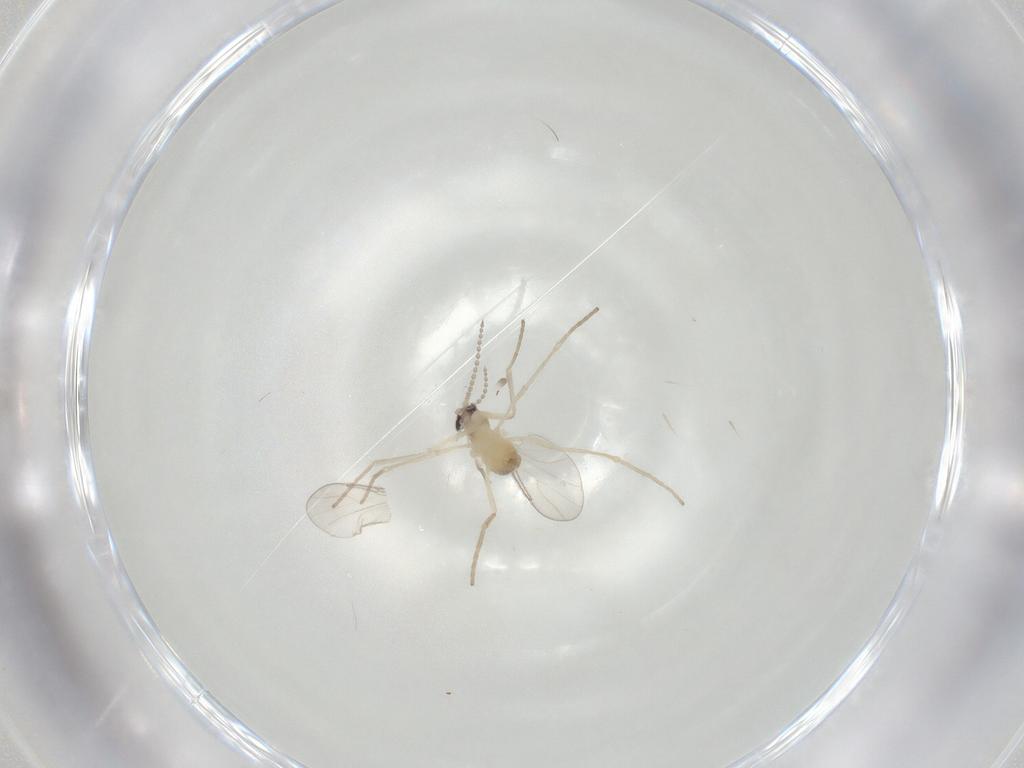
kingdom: Animalia
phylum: Arthropoda
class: Insecta
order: Diptera
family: Cecidomyiidae
